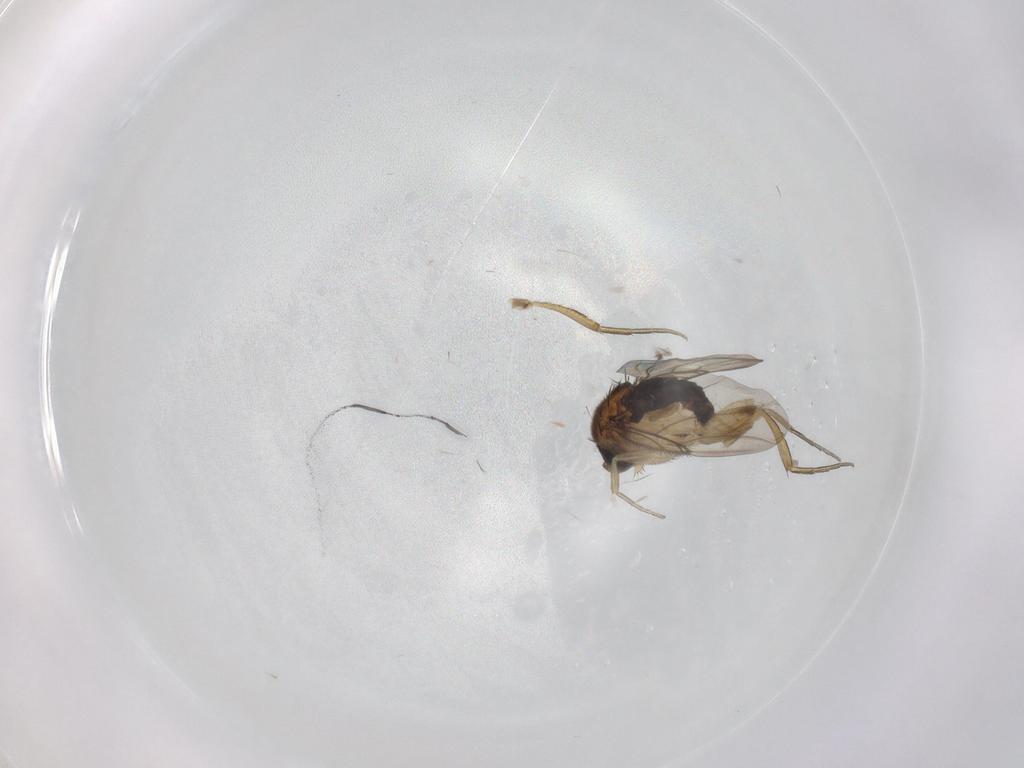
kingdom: Animalia
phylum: Arthropoda
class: Insecta
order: Diptera
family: Phoridae
